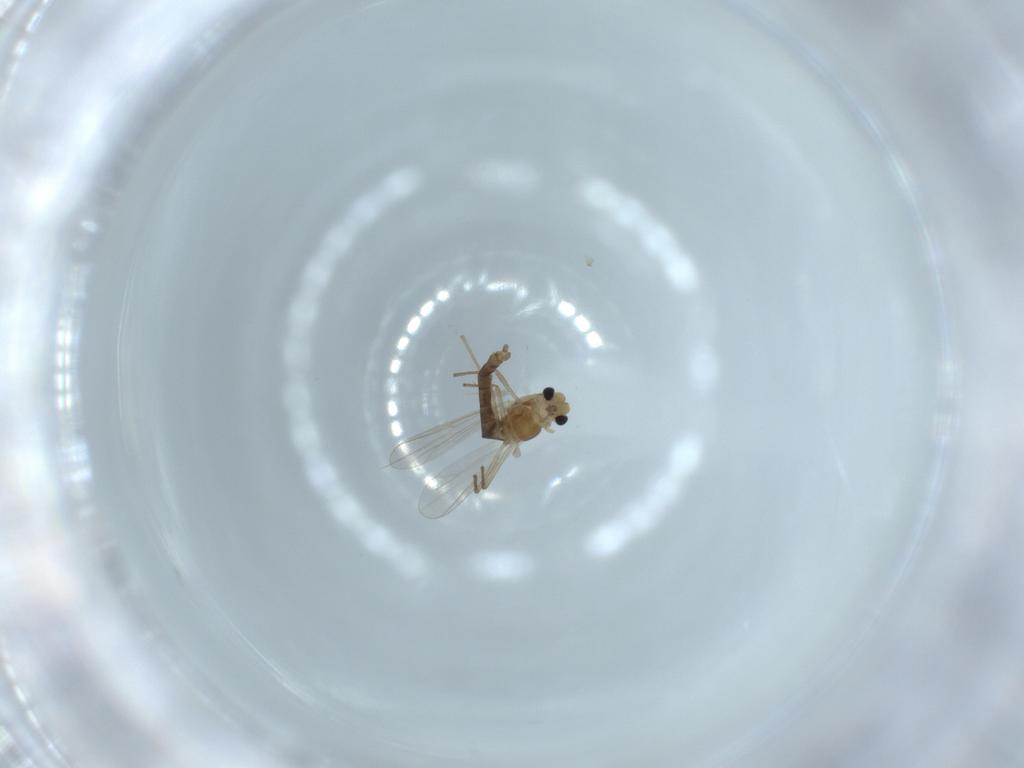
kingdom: Animalia
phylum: Arthropoda
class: Insecta
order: Diptera
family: Chironomidae
